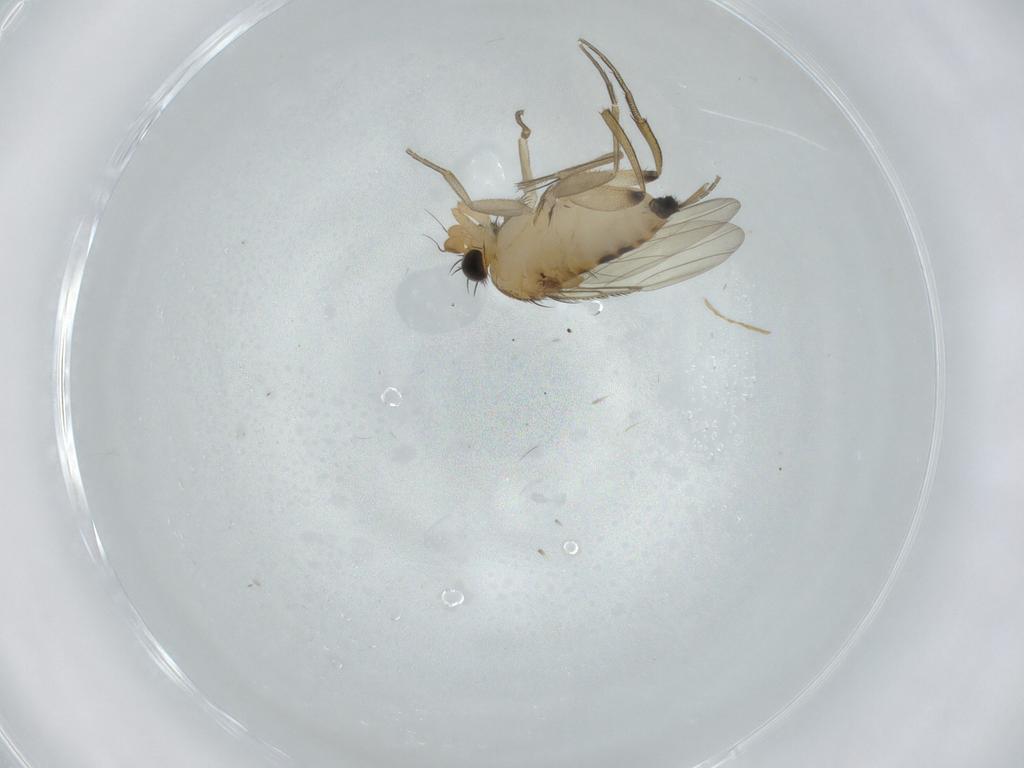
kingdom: Animalia
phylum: Arthropoda
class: Insecta
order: Diptera
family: Phoridae
